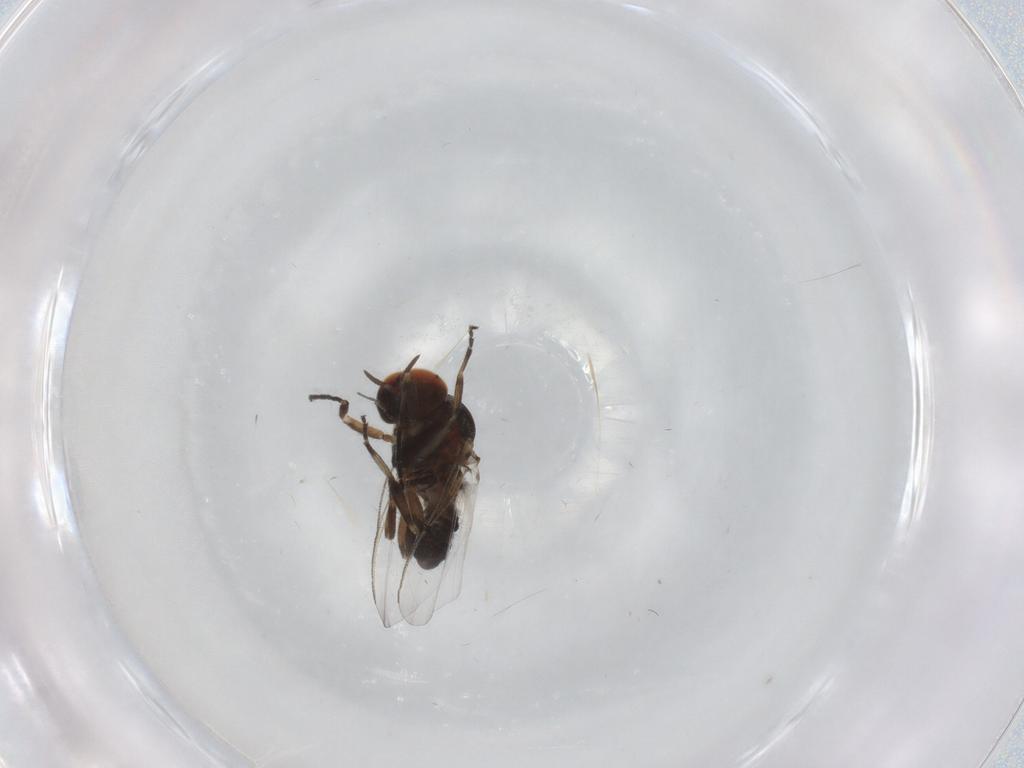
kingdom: Animalia
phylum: Arthropoda
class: Insecta
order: Diptera
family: Simuliidae
